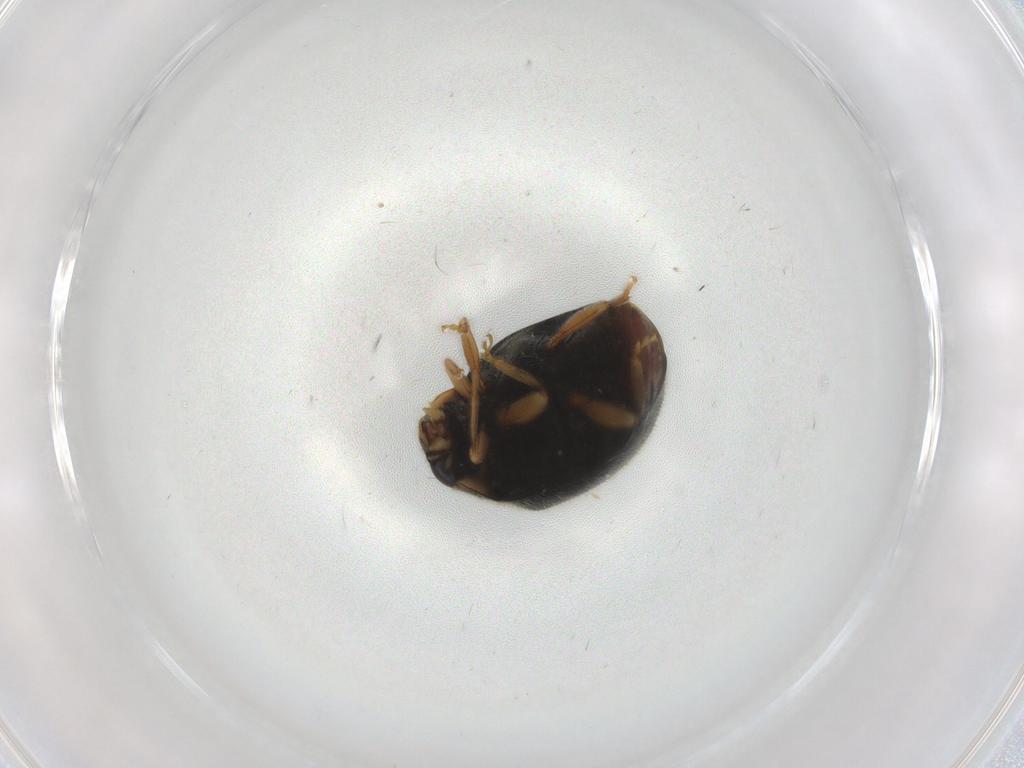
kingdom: Animalia
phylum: Arthropoda
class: Insecta
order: Coleoptera
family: Coccinellidae
